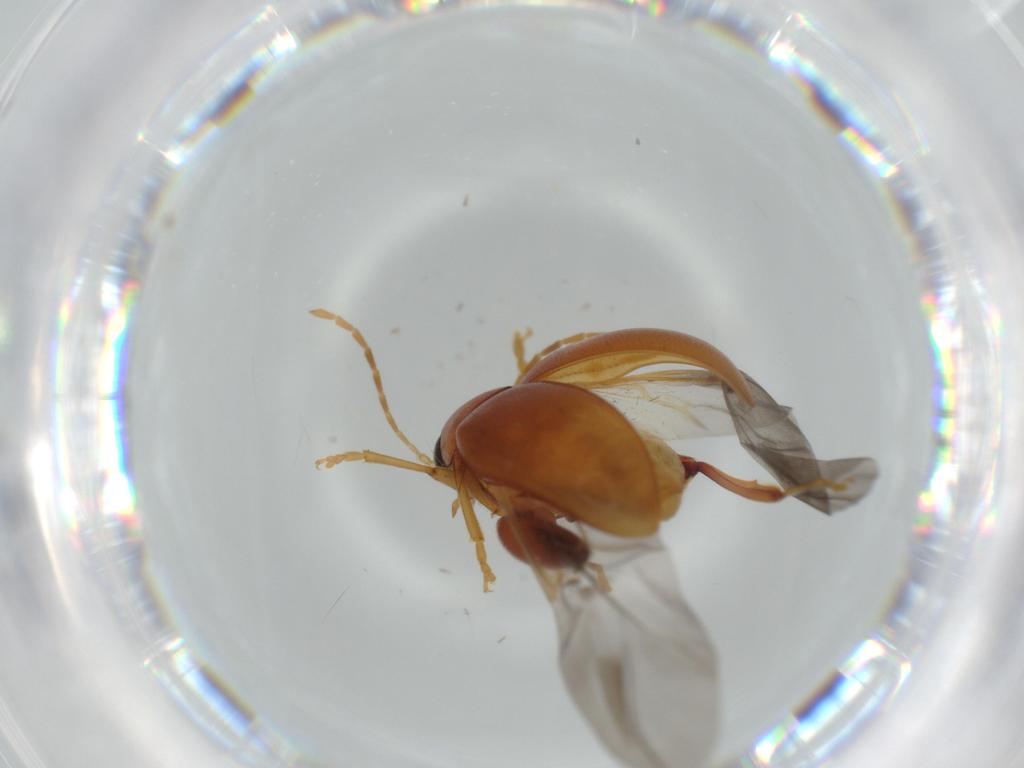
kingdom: Animalia
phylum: Arthropoda
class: Insecta
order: Coleoptera
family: Chrysomelidae
